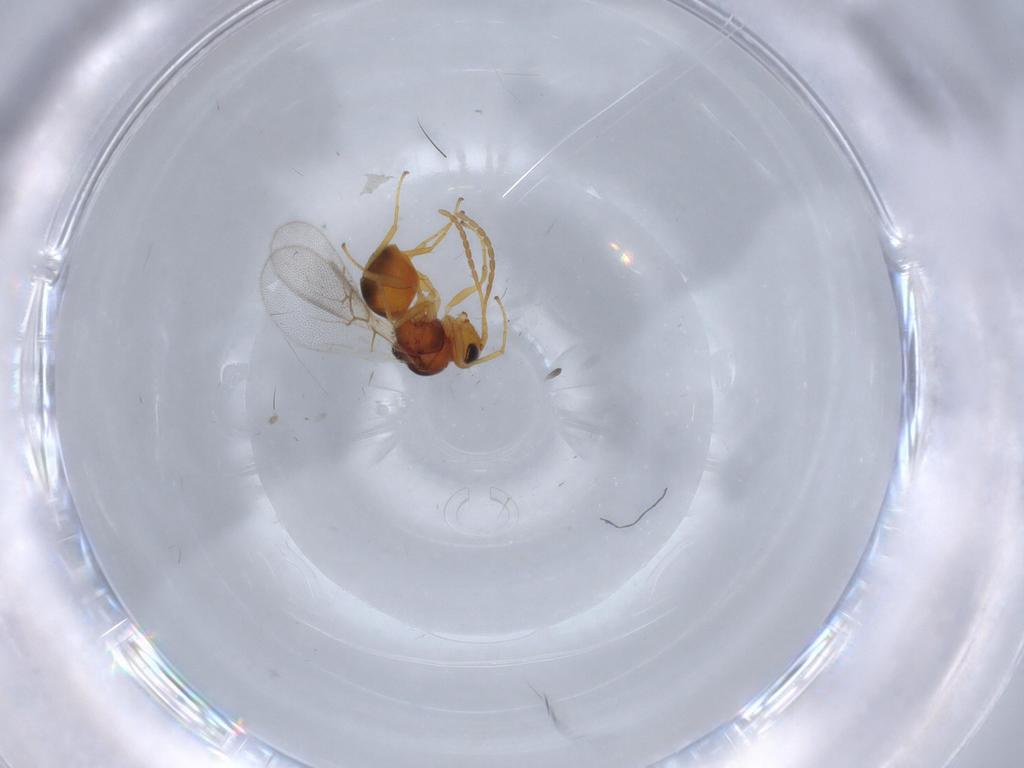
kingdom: Animalia
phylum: Arthropoda
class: Insecta
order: Hymenoptera
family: Figitidae
